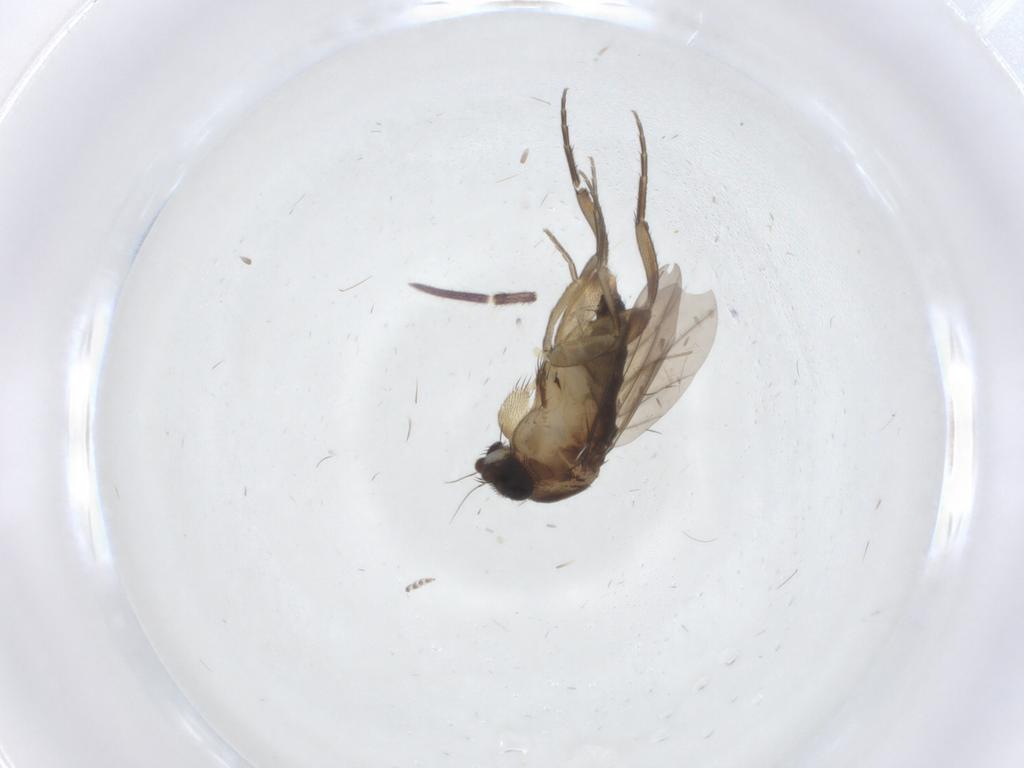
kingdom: Animalia
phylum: Arthropoda
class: Insecta
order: Diptera
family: Phoridae
